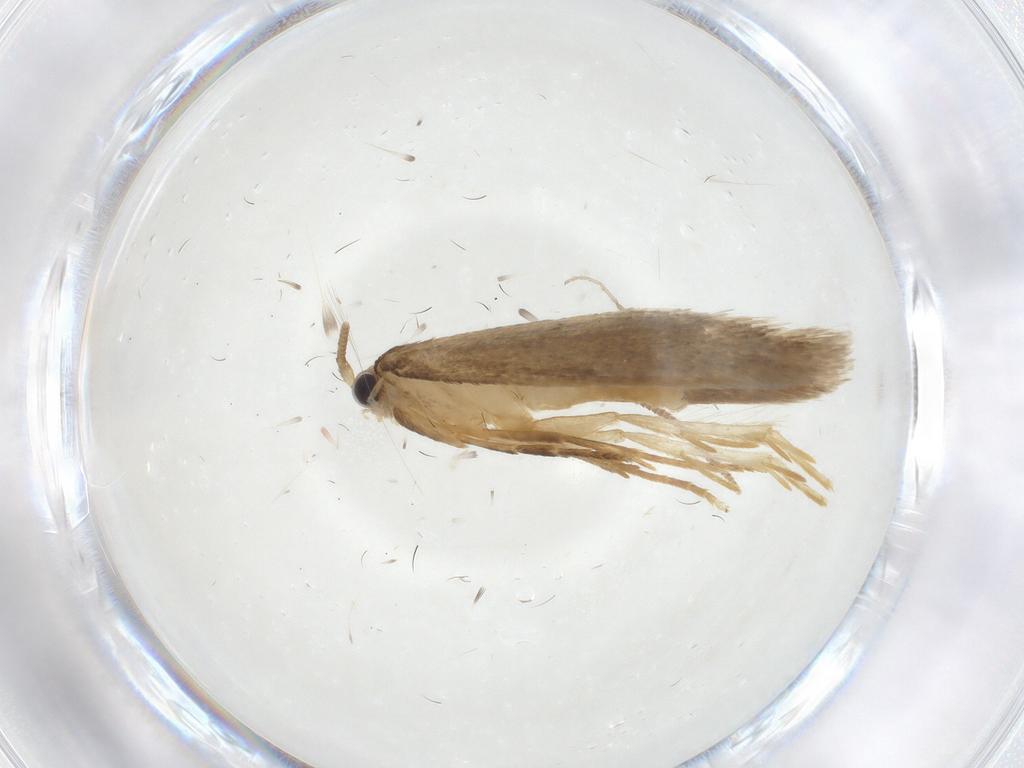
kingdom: Animalia
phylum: Arthropoda
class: Insecta
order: Zygentoma
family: Lepismatidae
